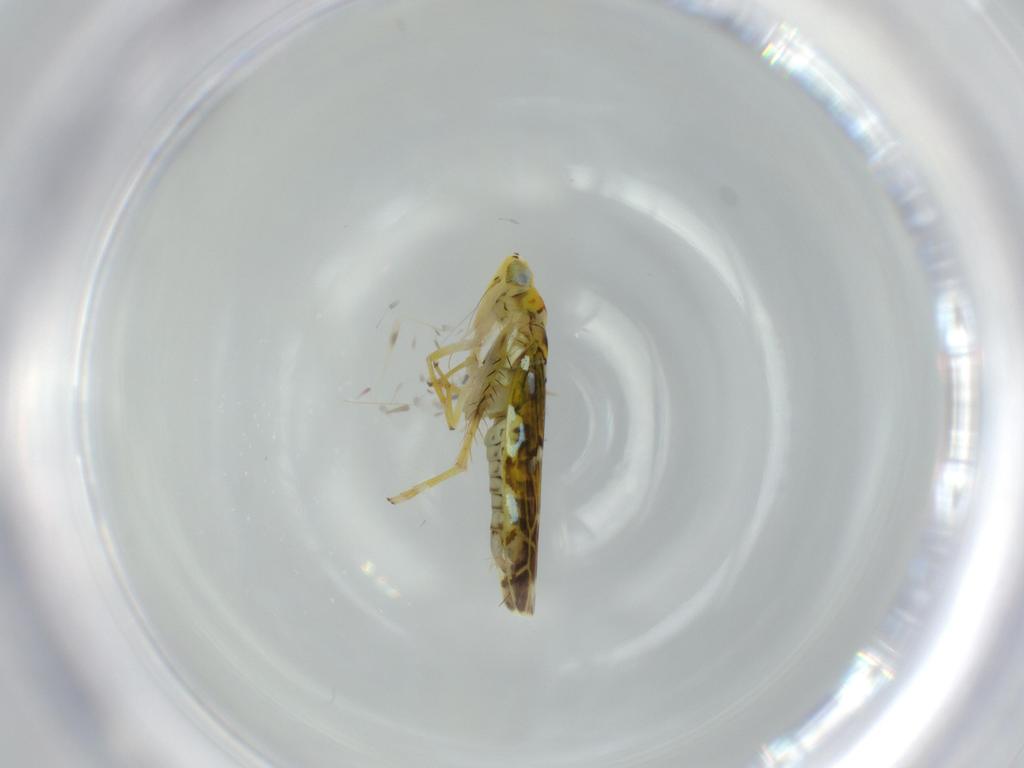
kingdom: Animalia
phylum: Arthropoda
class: Insecta
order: Hemiptera
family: Cicadellidae
